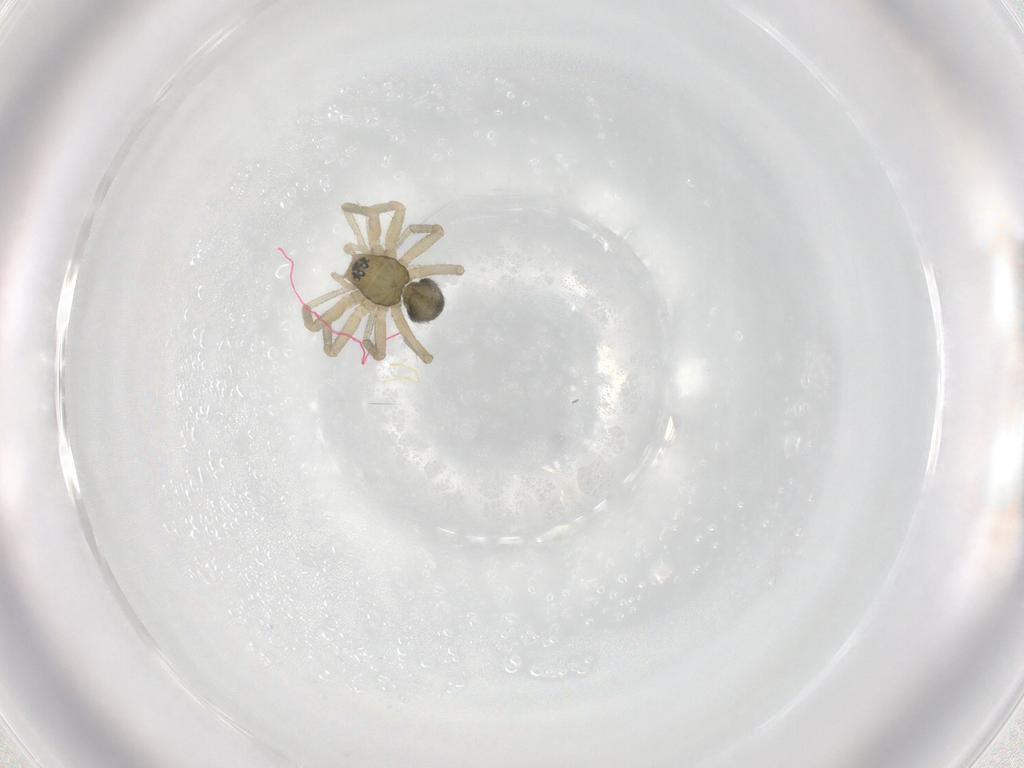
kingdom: Animalia
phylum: Arthropoda
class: Arachnida
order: Araneae
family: Linyphiidae
